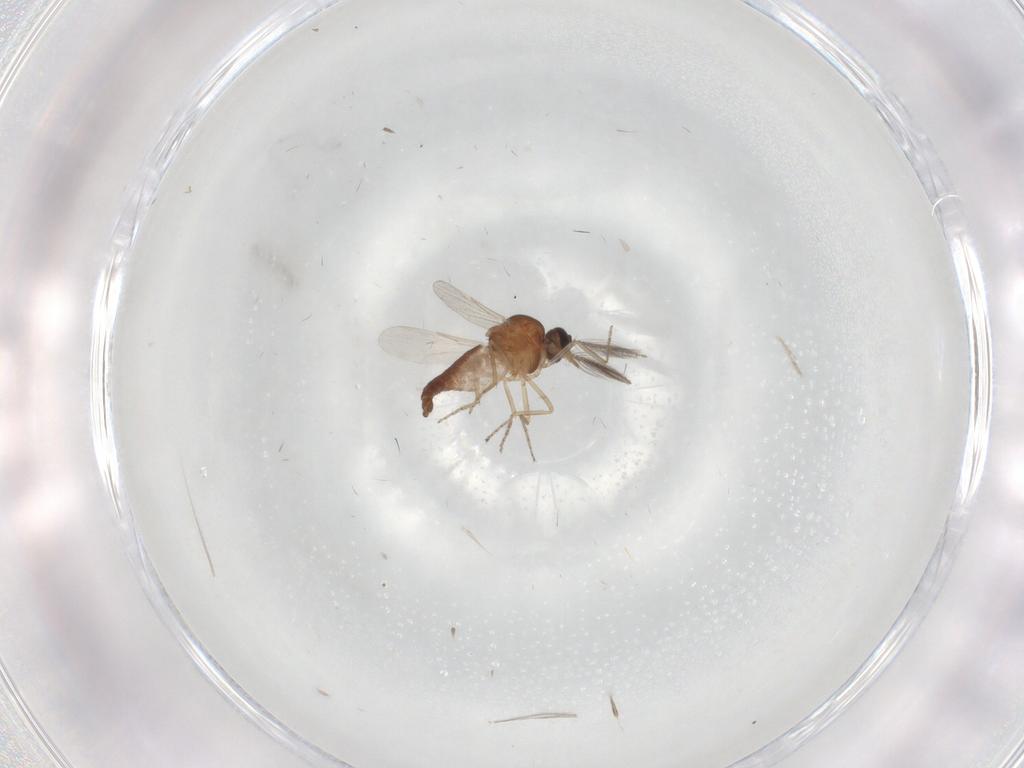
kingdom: Animalia
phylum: Arthropoda
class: Insecta
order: Diptera
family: Ceratopogonidae
